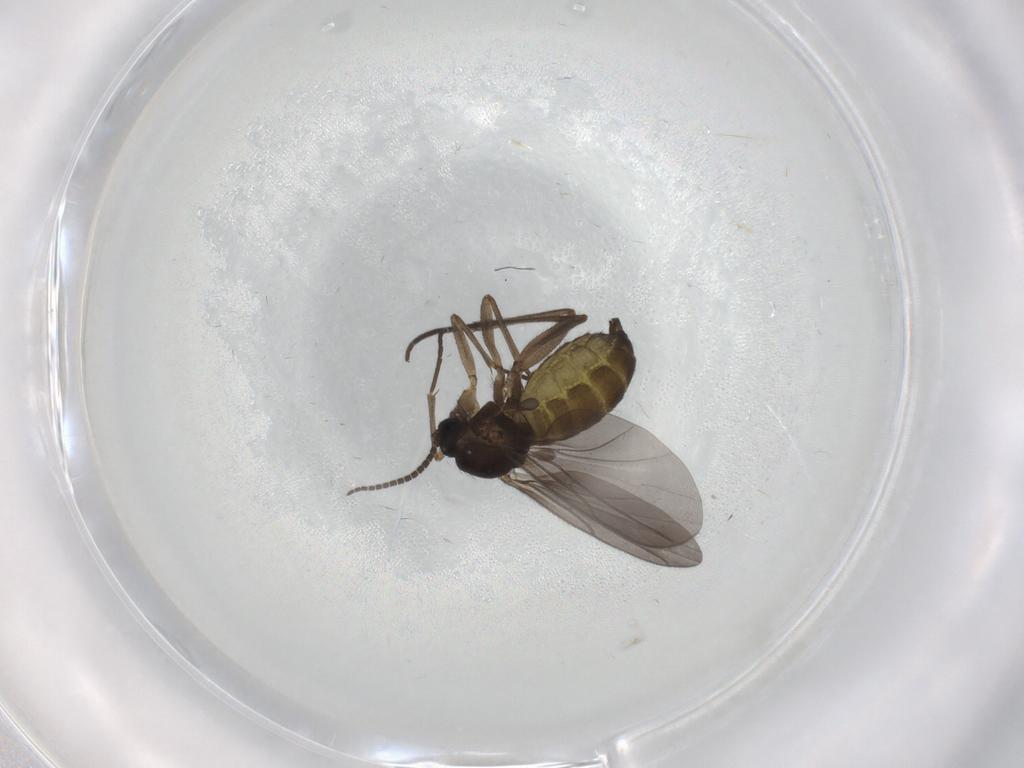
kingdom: Animalia
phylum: Arthropoda
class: Insecta
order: Diptera
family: Sciaridae
